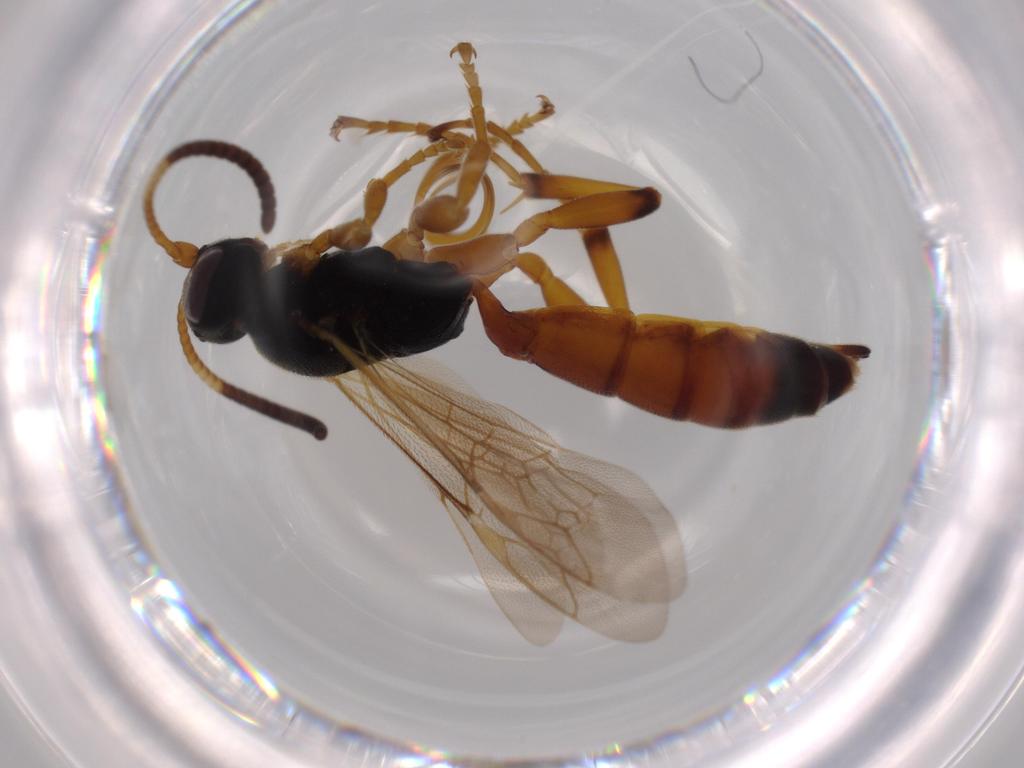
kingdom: Animalia
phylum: Arthropoda
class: Insecta
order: Hymenoptera
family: Ichneumonidae
